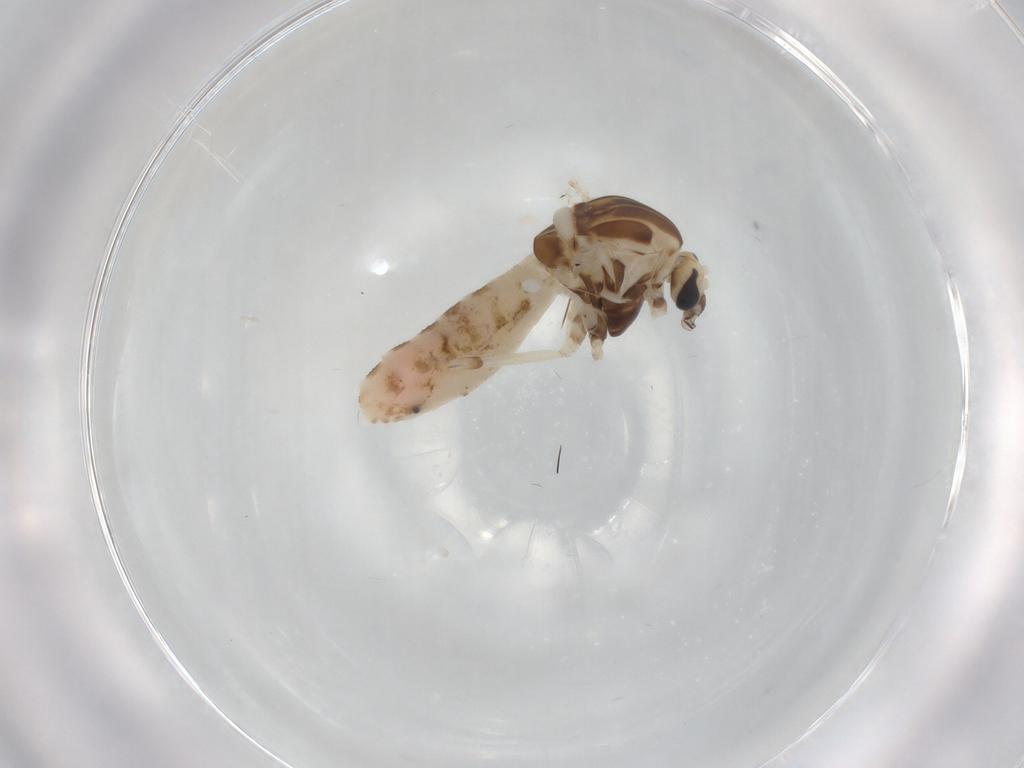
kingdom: Animalia
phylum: Arthropoda
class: Insecta
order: Diptera
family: Chironomidae
